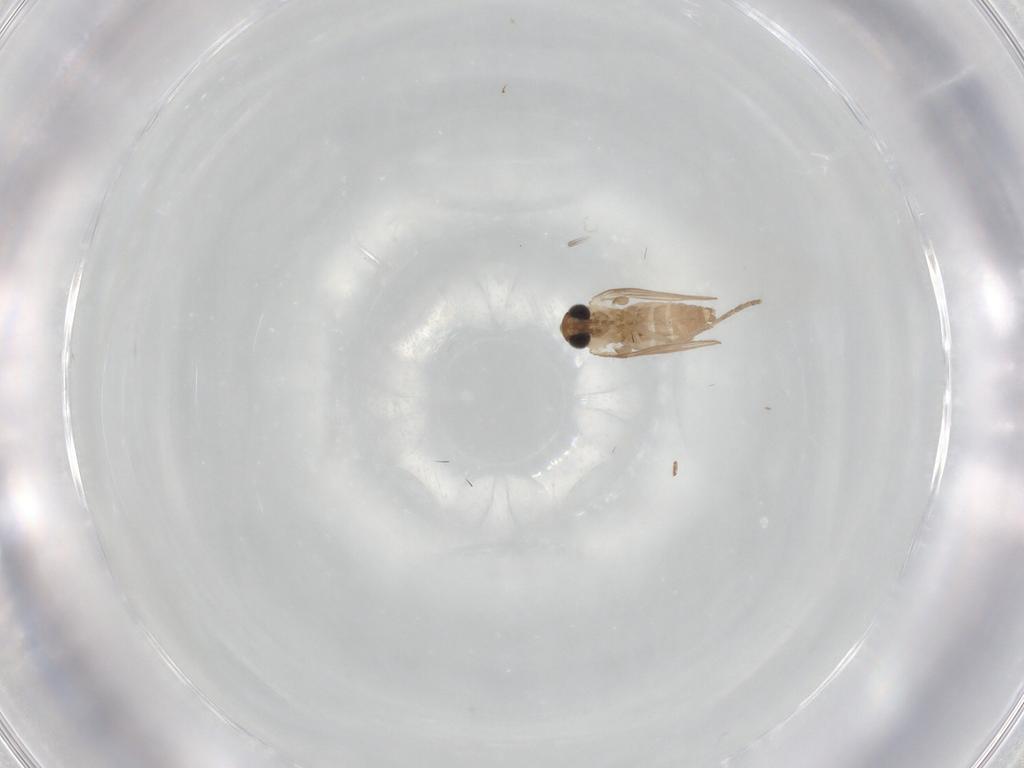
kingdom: Animalia
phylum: Arthropoda
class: Insecta
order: Diptera
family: Psychodidae
